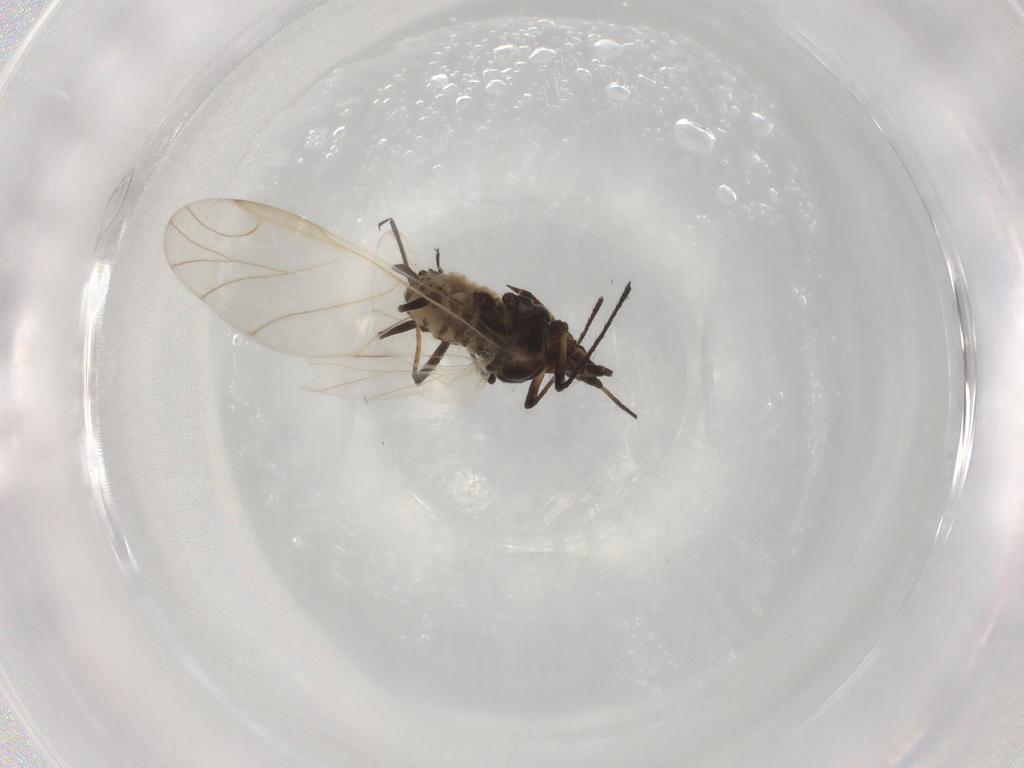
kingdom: Animalia
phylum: Arthropoda
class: Insecta
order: Hemiptera
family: Aphididae
